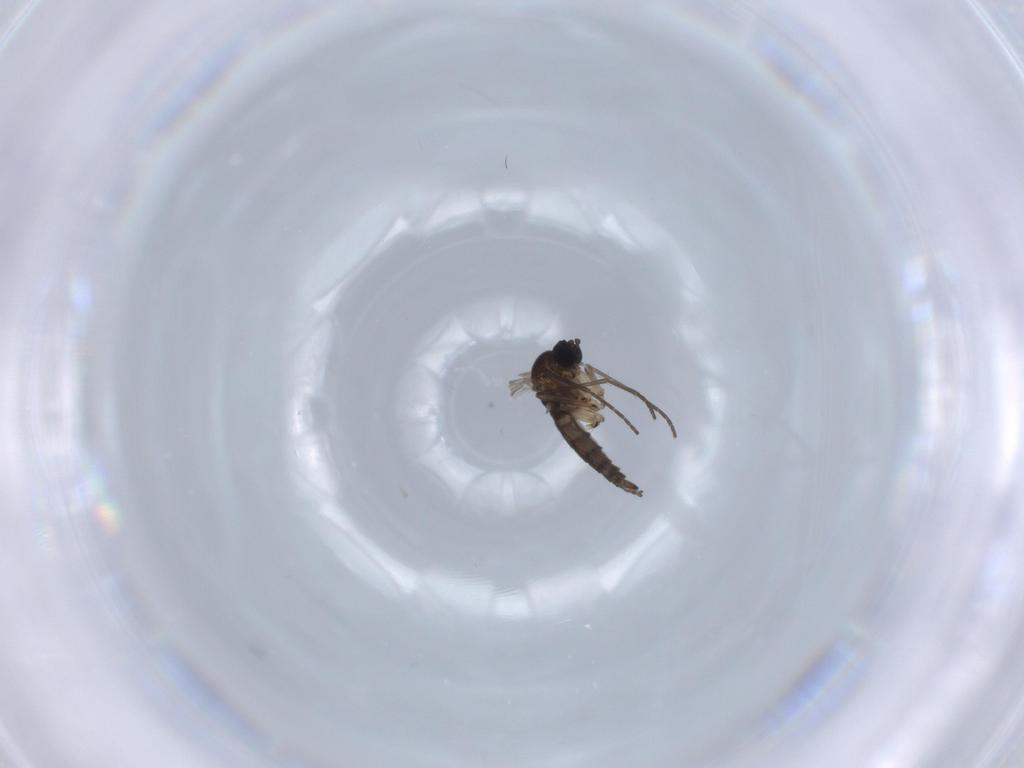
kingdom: Animalia
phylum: Arthropoda
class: Insecta
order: Diptera
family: Sciaridae
